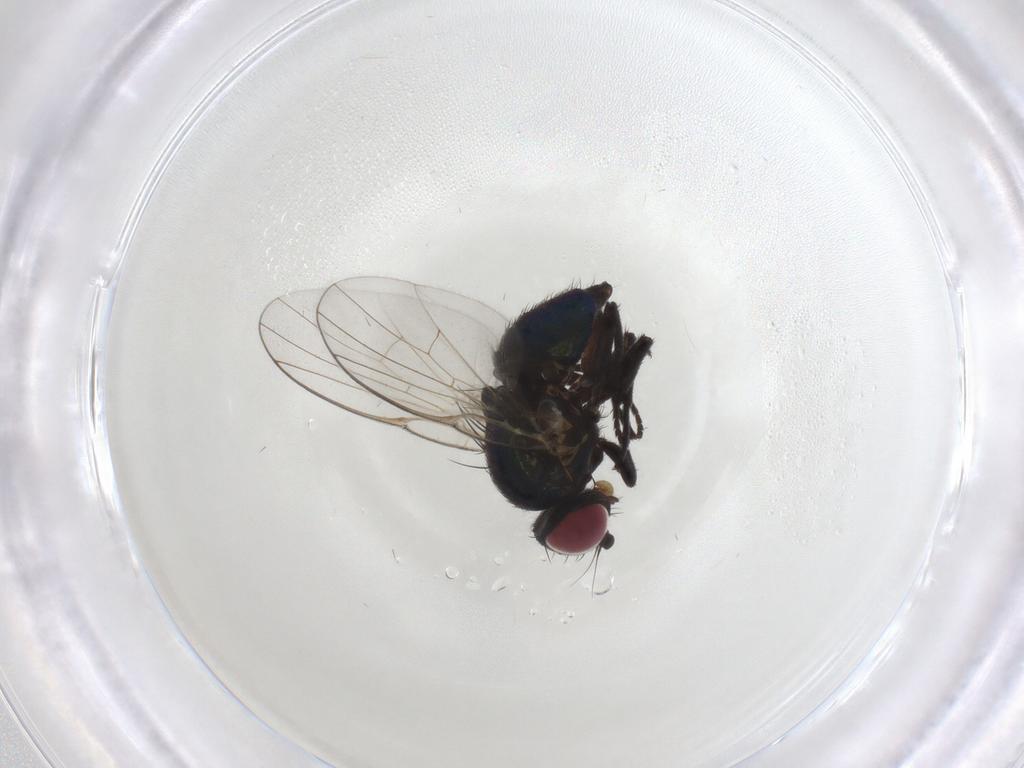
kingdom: Animalia
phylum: Arthropoda
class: Insecta
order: Diptera
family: Agromyzidae
